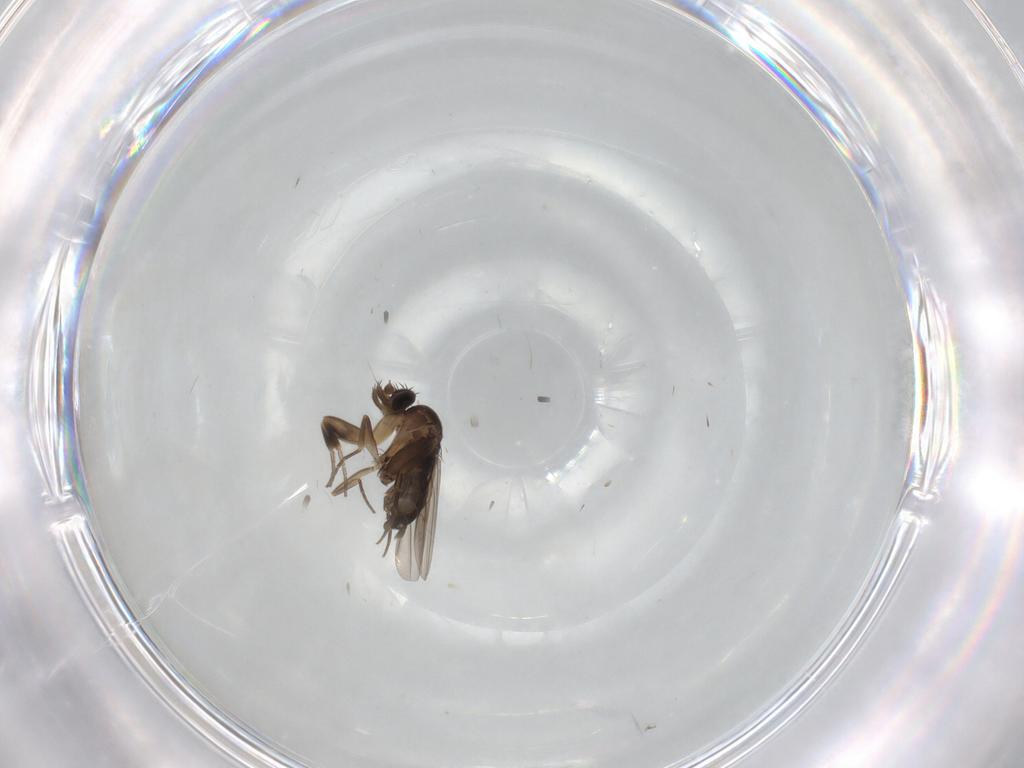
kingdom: Animalia
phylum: Arthropoda
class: Insecta
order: Diptera
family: Phoridae
